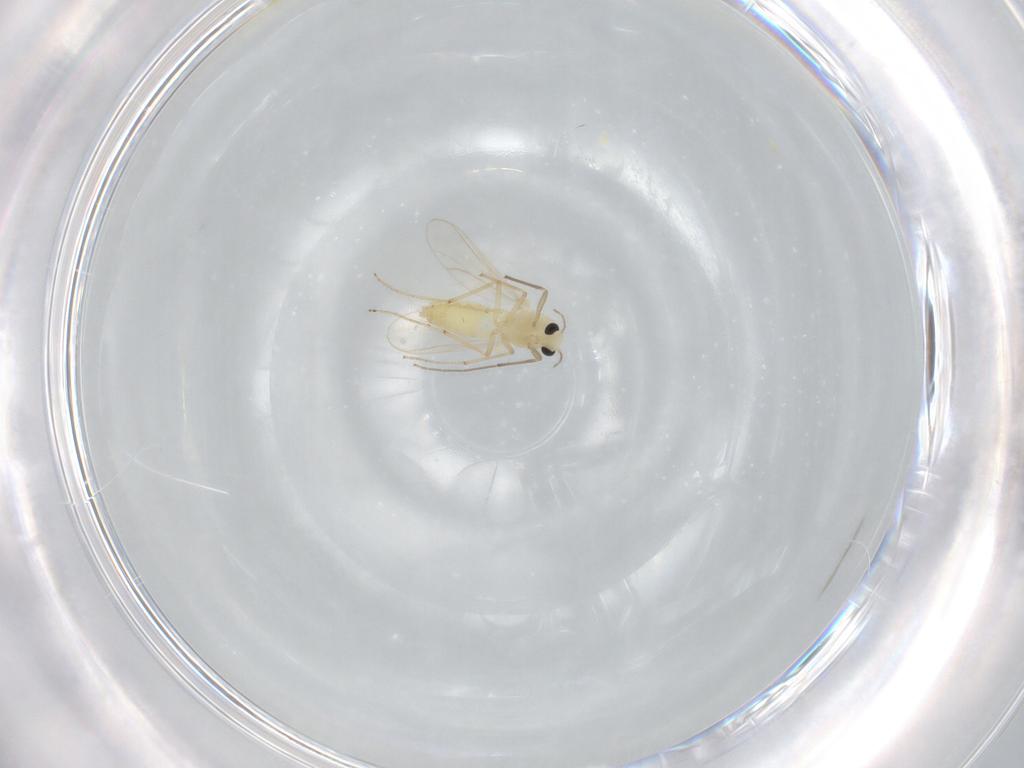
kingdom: Animalia
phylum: Arthropoda
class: Insecta
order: Diptera
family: Chironomidae
